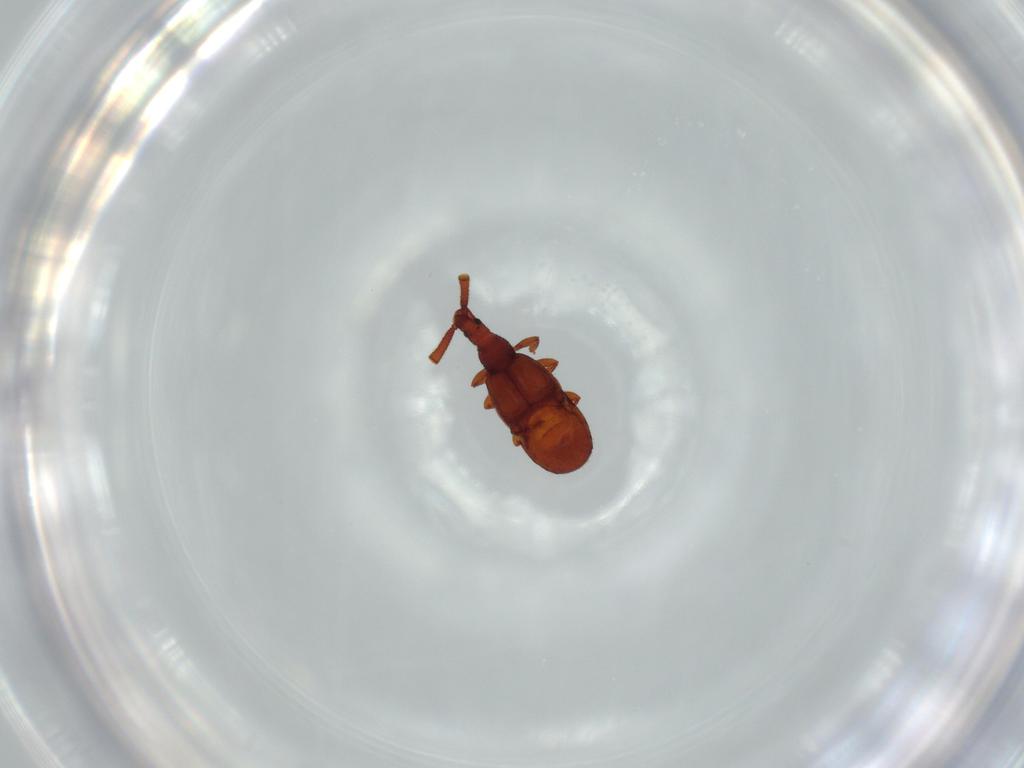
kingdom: Animalia
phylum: Arthropoda
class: Insecta
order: Coleoptera
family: Staphylinidae
